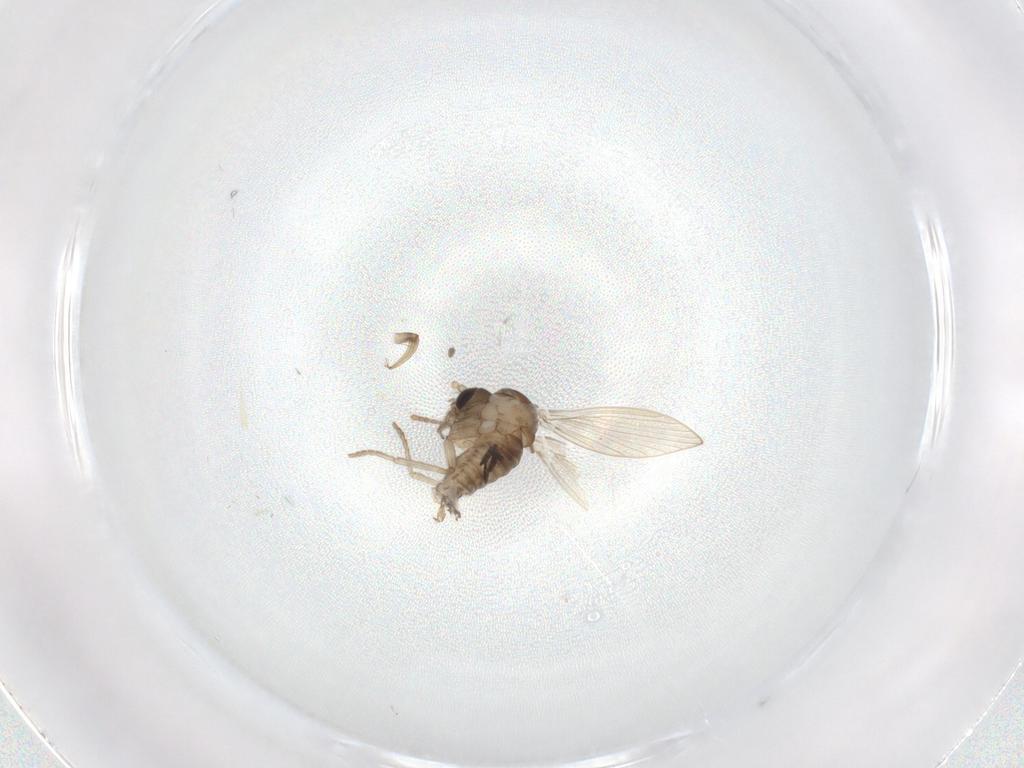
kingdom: Animalia
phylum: Arthropoda
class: Insecta
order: Diptera
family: Psychodidae
